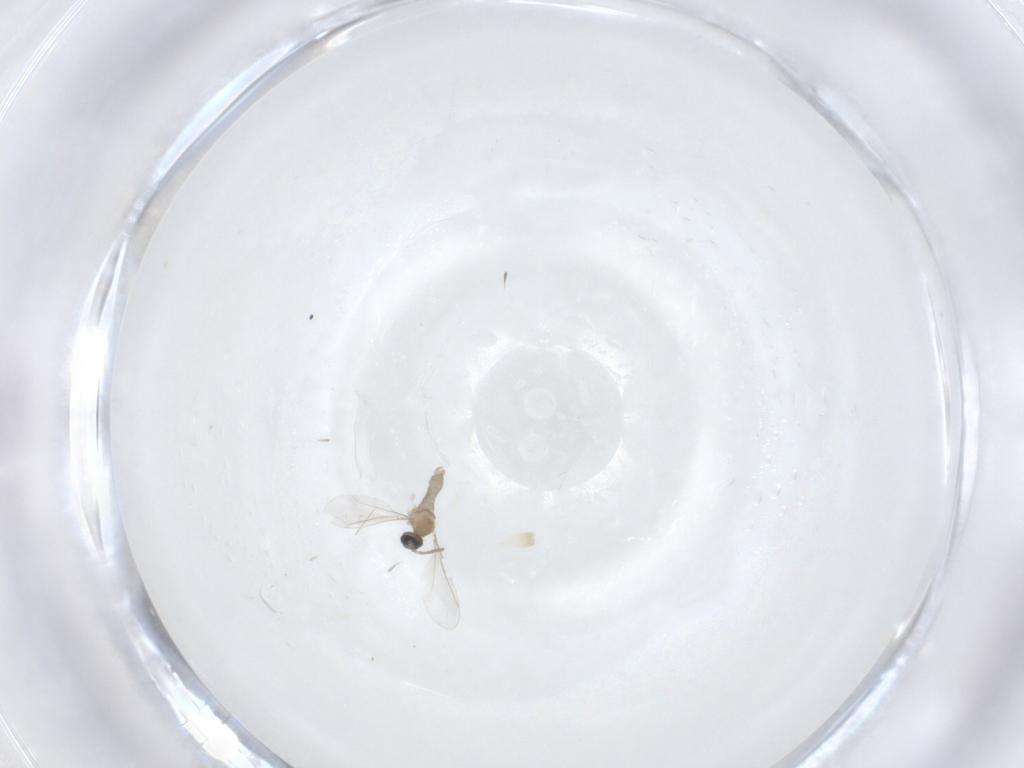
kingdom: Animalia
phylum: Arthropoda
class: Insecta
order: Diptera
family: Cecidomyiidae
